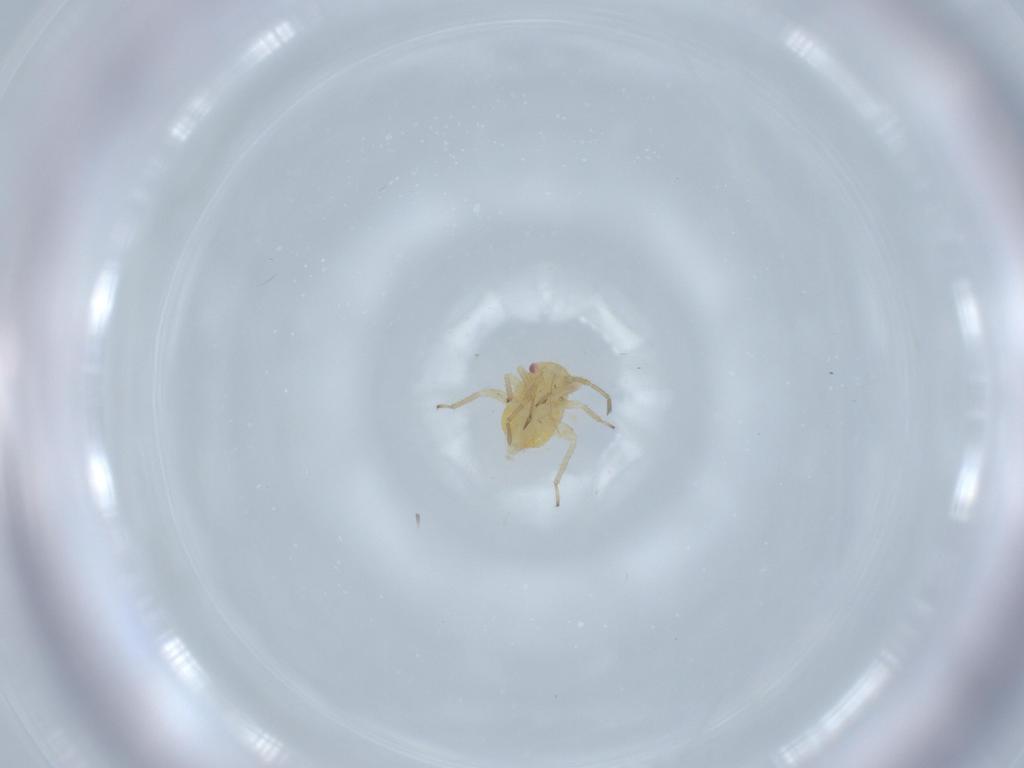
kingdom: Animalia
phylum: Arthropoda
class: Insecta
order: Hemiptera
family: Miridae
